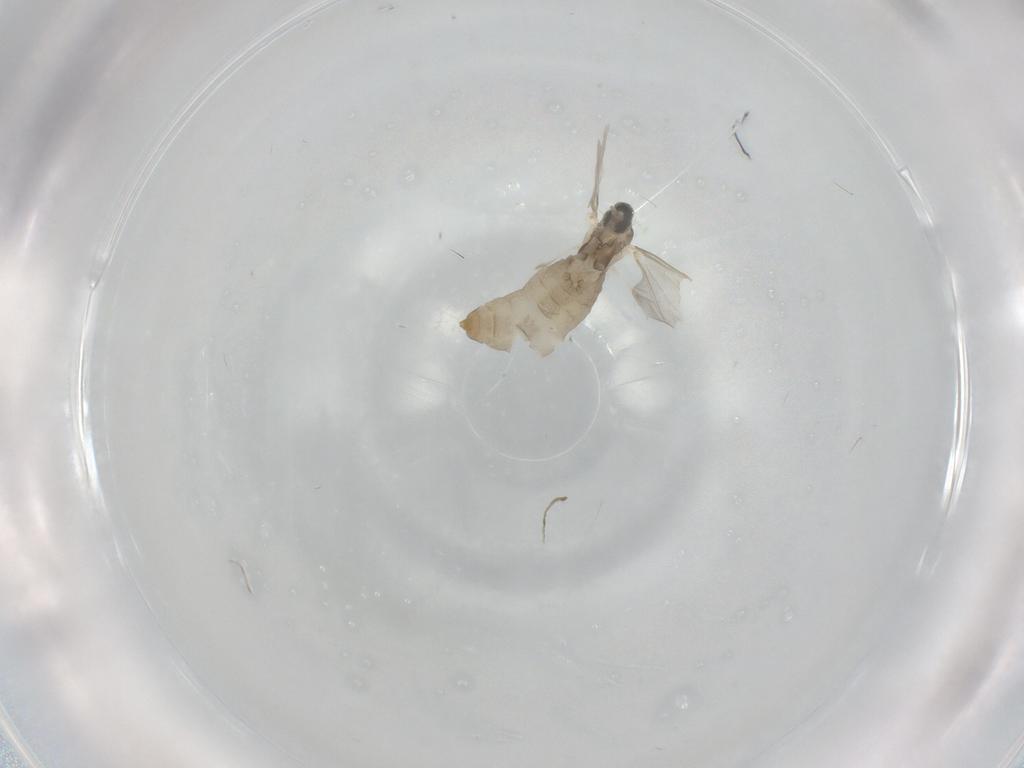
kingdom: Animalia
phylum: Arthropoda
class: Insecta
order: Diptera
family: Cecidomyiidae
